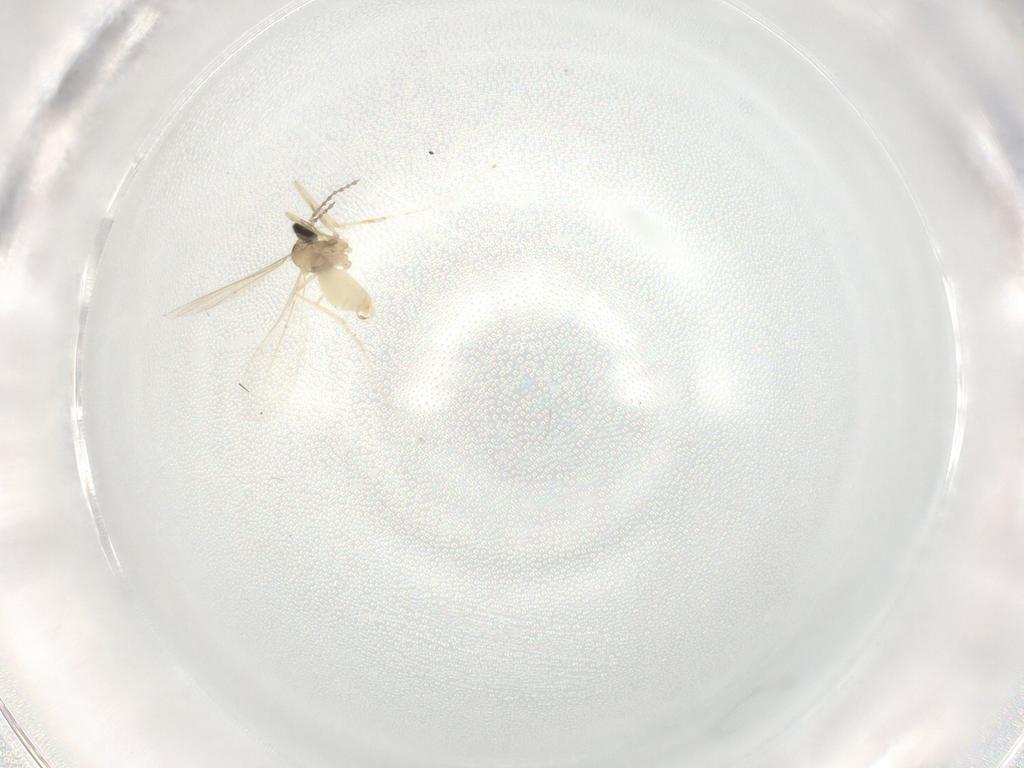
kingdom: Animalia
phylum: Arthropoda
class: Insecta
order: Diptera
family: Cecidomyiidae
